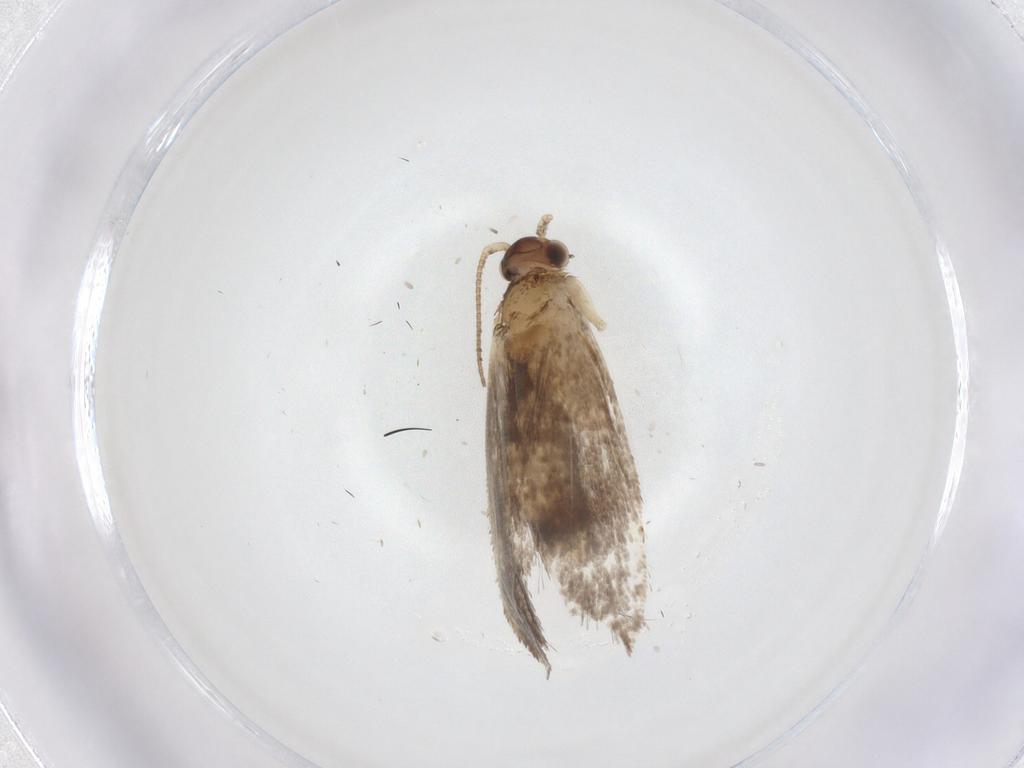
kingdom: Animalia
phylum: Arthropoda
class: Insecta
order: Lepidoptera
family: Dryadaulidae
